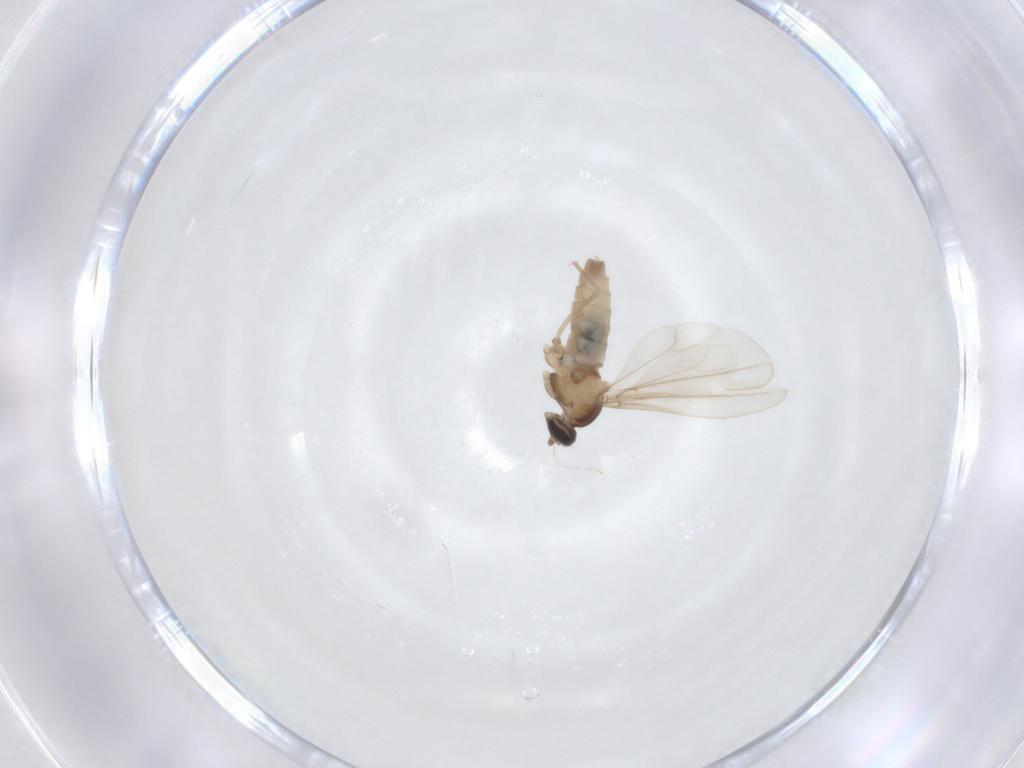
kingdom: Animalia
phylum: Arthropoda
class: Insecta
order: Diptera
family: Cecidomyiidae
